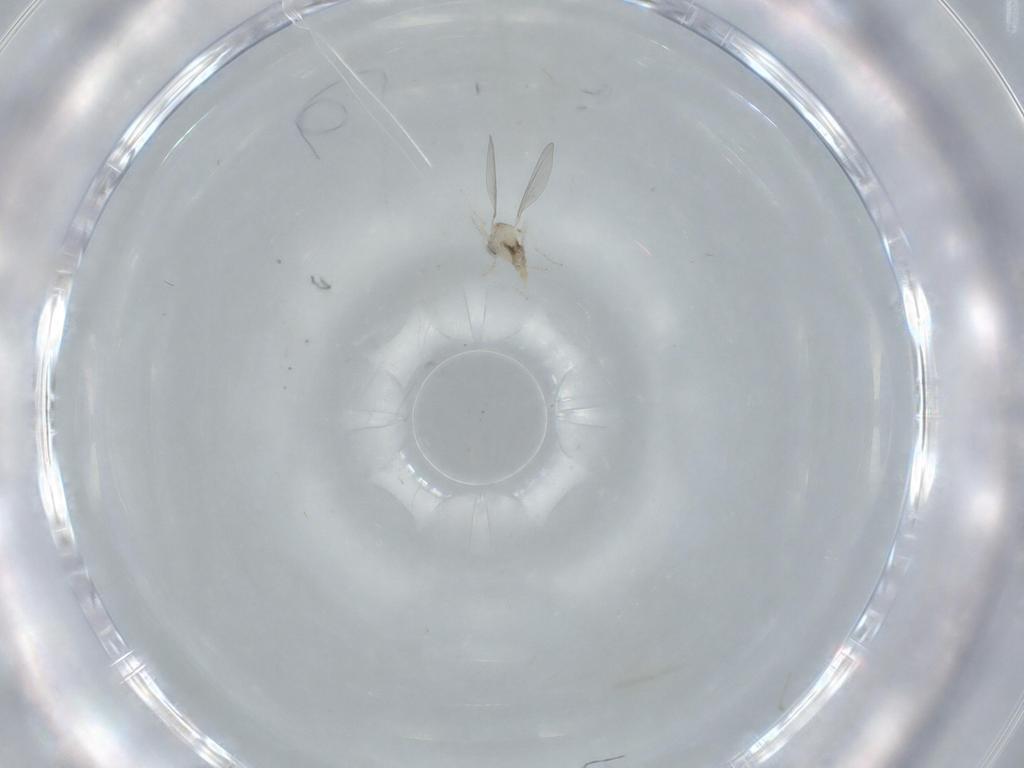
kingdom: Animalia
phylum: Arthropoda
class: Insecta
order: Diptera
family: Cecidomyiidae
